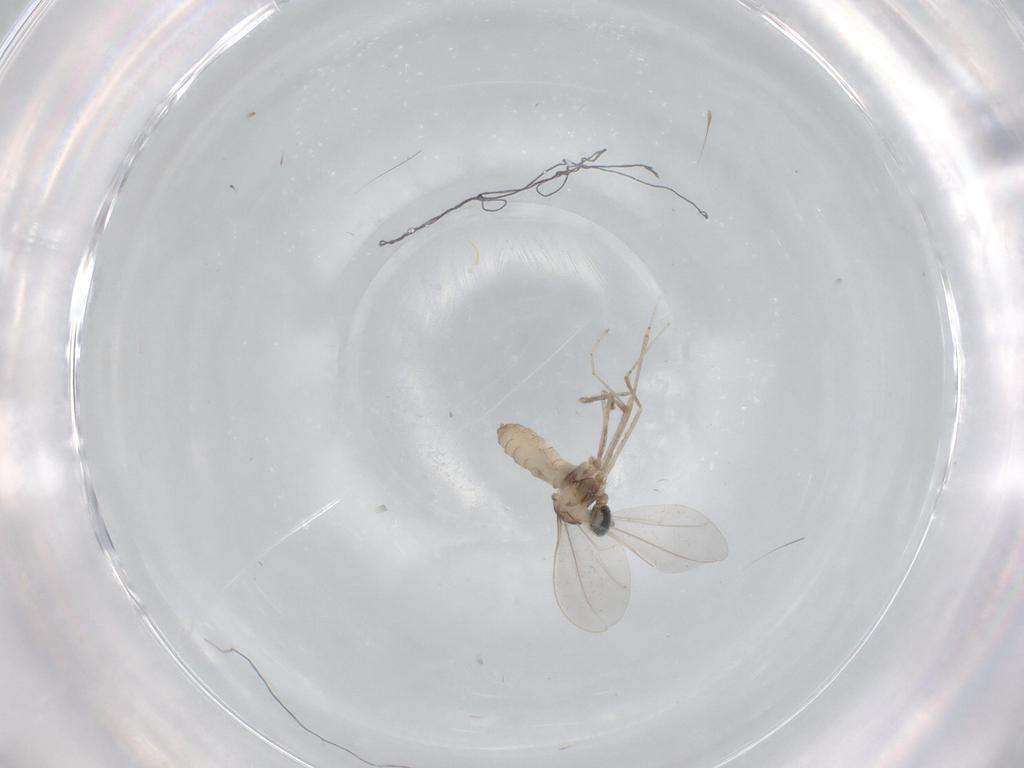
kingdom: Animalia
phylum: Arthropoda
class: Insecta
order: Diptera
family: Cecidomyiidae
